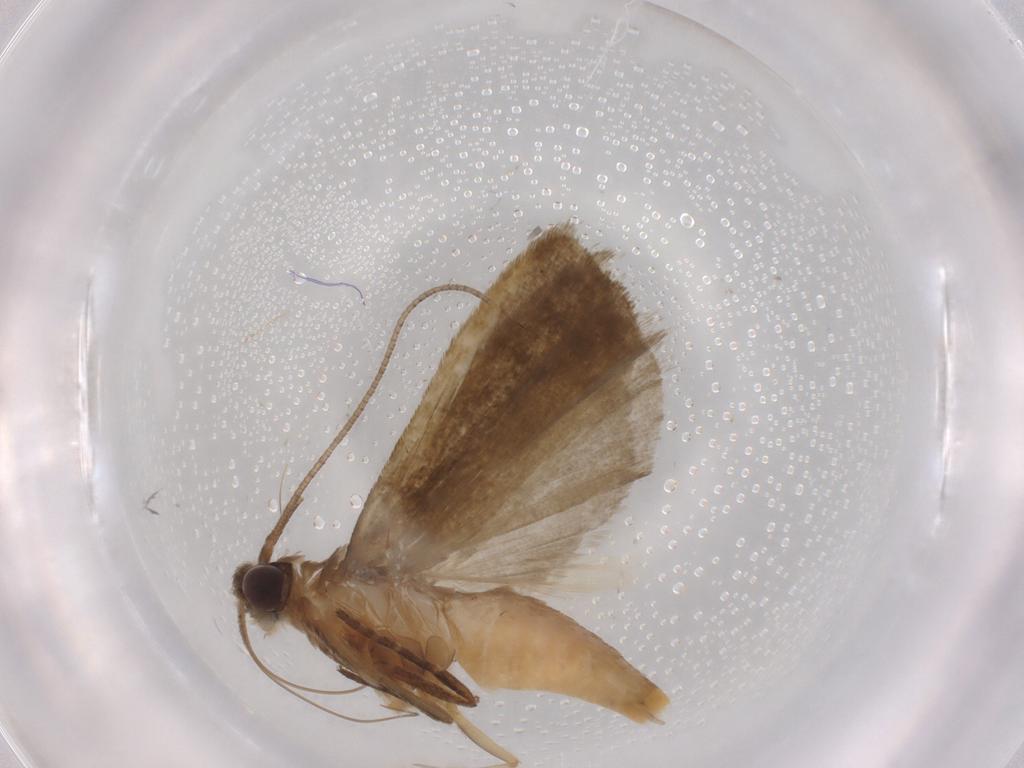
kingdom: Animalia
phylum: Arthropoda
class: Insecta
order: Lepidoptera
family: Noctuidae
